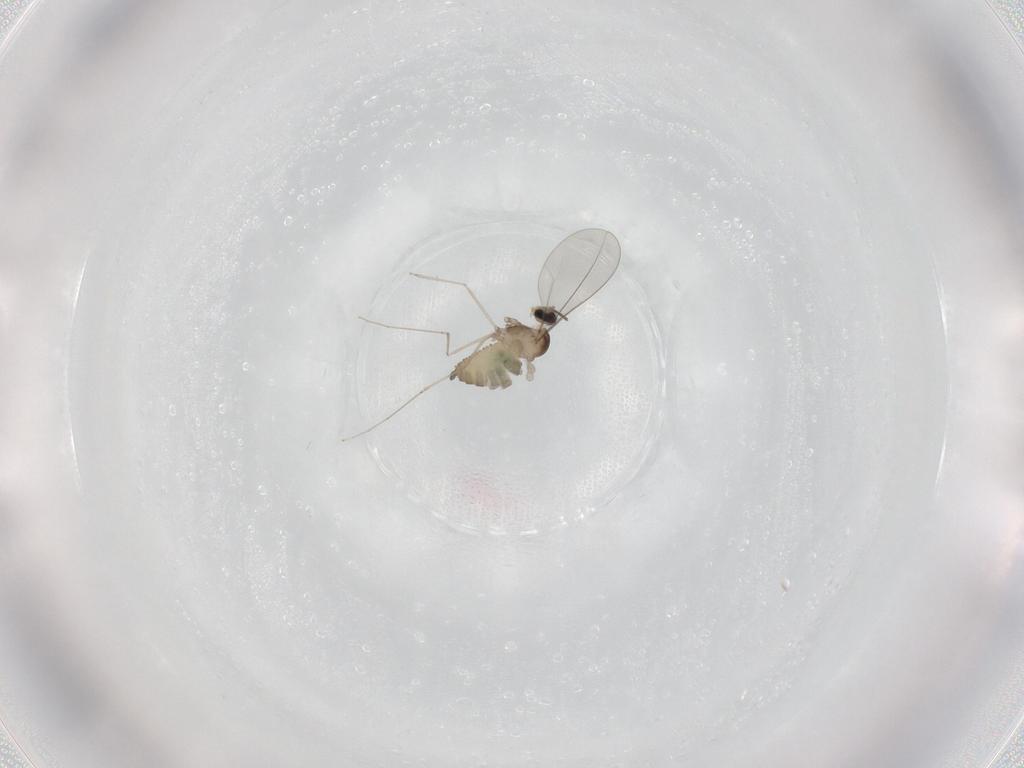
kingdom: Animalia
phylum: Arthropoda
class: Insecta
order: Diptera
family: Cecidomyiidae
